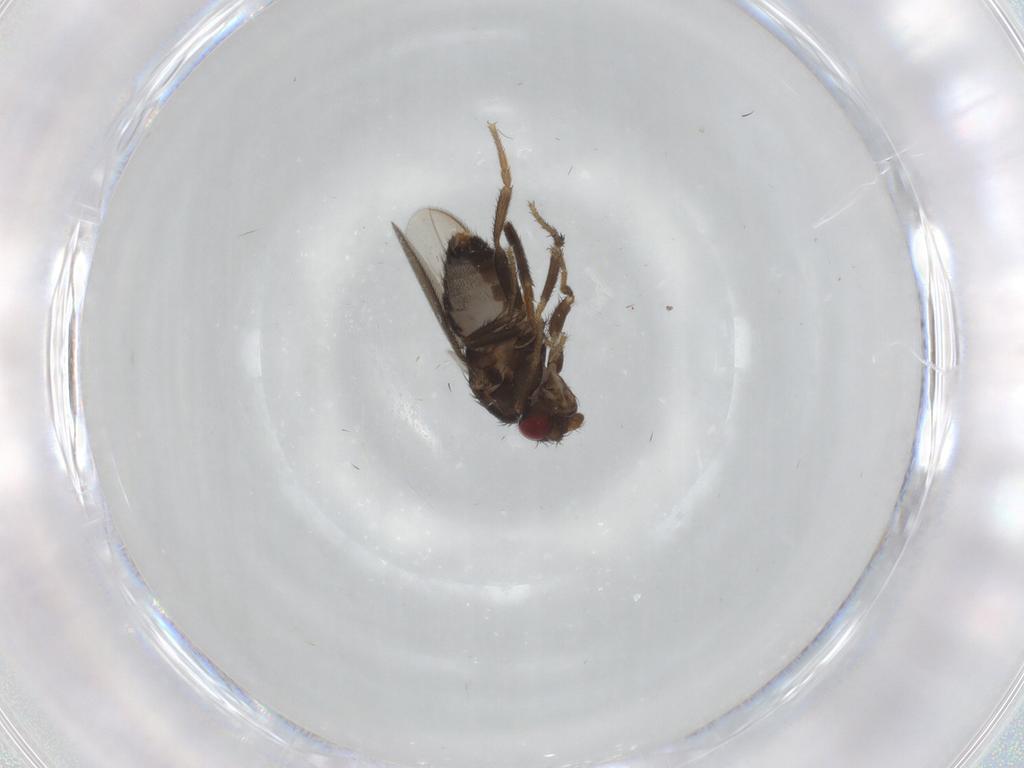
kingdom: Animalia
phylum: Arthropoda
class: Insecta
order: Diptera
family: Sphaeroceridae
